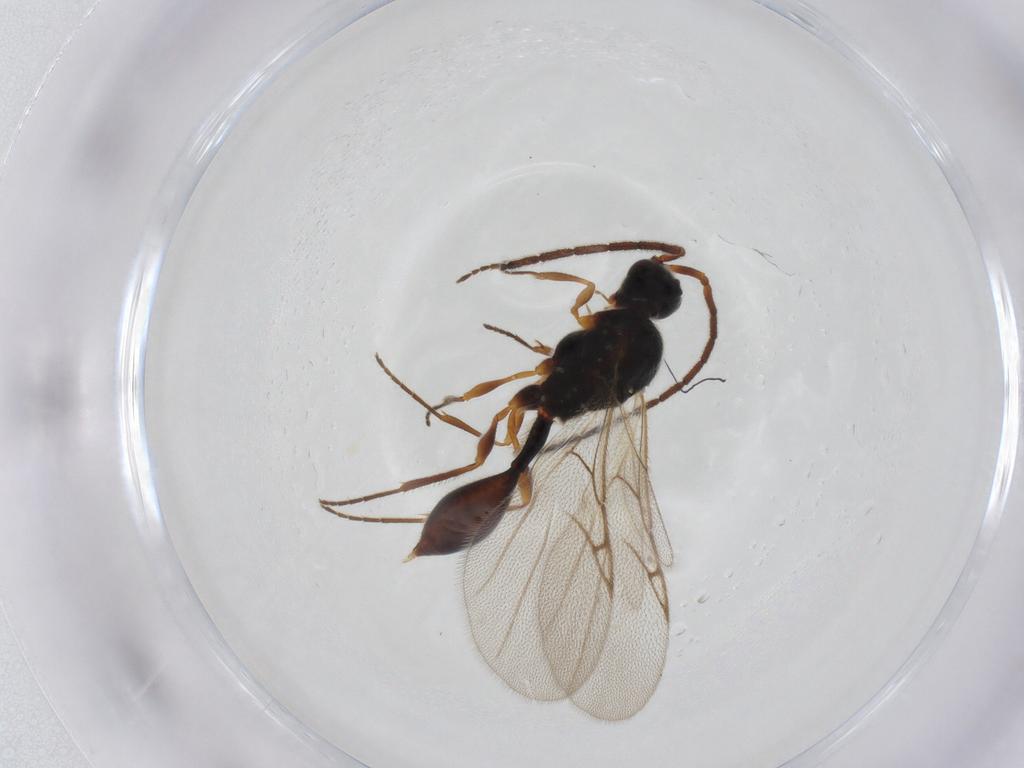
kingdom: Animalia
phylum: Arthropoda
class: Insecta
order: Hymenoptera
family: Diapriidae
